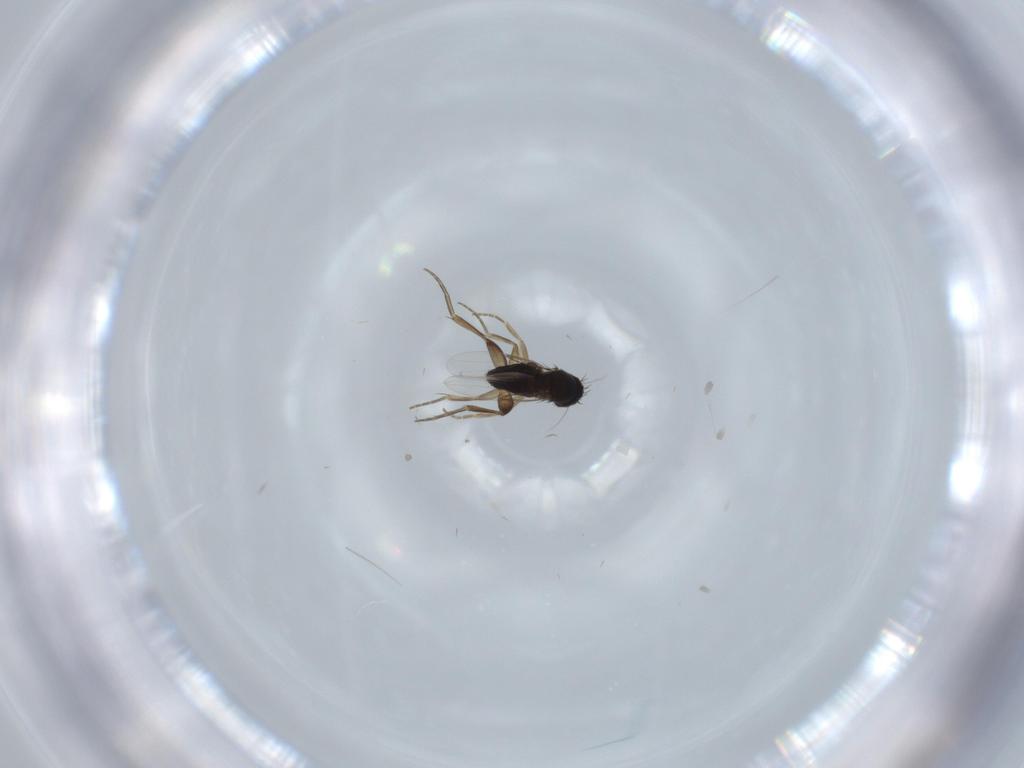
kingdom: Animalia
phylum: Arthropoda
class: Insecta
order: Diptera
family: Phoridae
